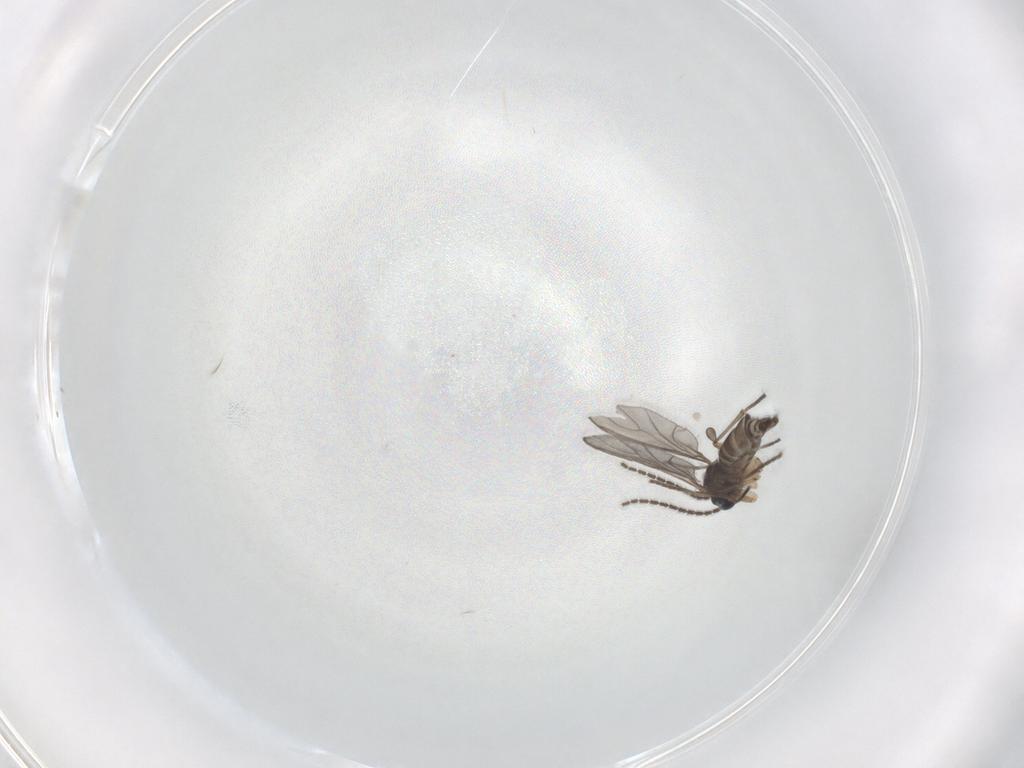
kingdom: Animalia
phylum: Arthropoda
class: Insecta
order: Diptera
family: Sciaridae
